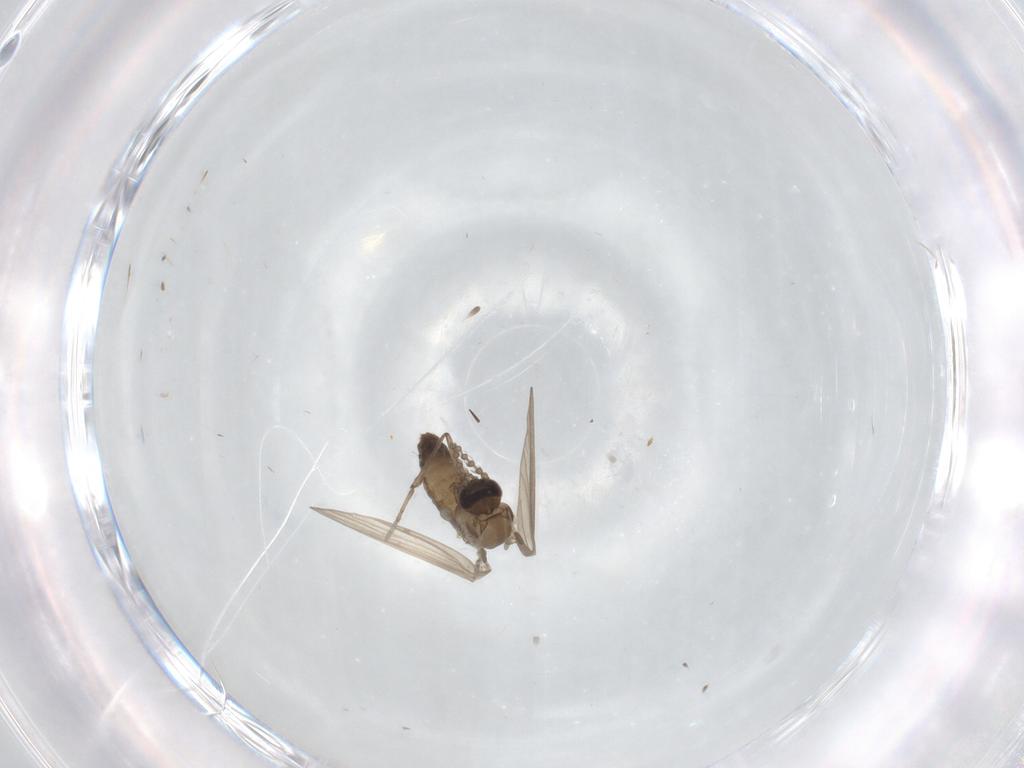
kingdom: Animalia
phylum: Arthropoda
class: Insecta
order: Diptera
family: Psychodidae
